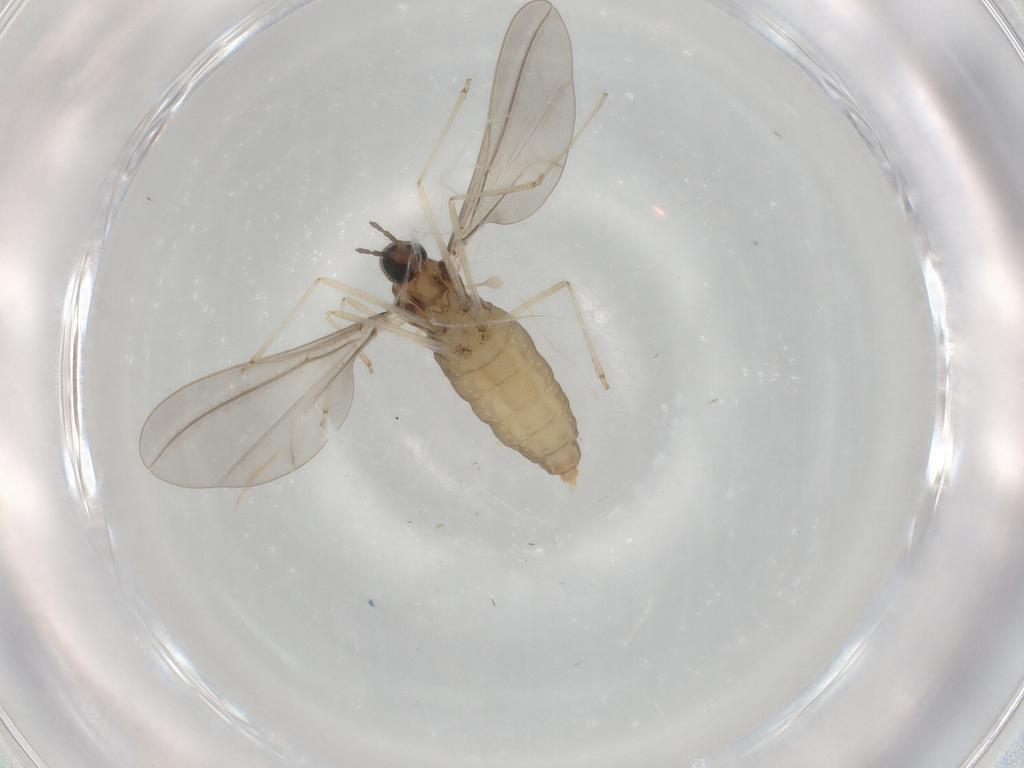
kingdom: Animalia
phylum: Arthropoda
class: Insecta
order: Diptera
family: Cecidomyiidae
